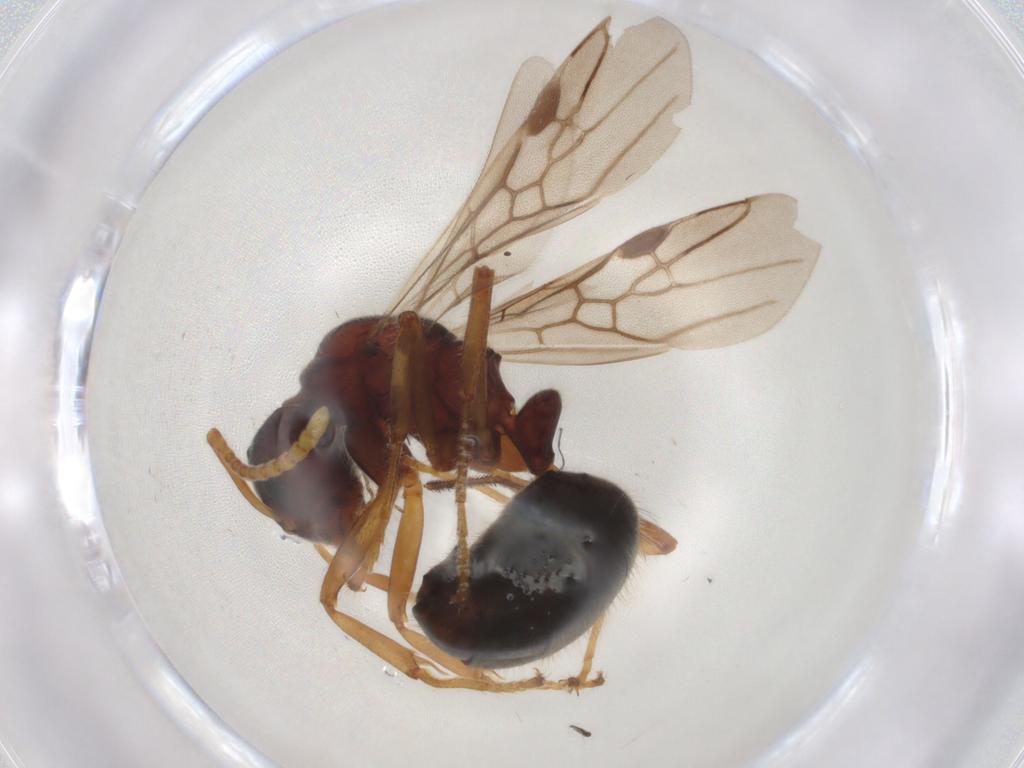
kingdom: Animalia
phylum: Arthropoda
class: Insecta
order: Hymenoptera
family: Formicidae
